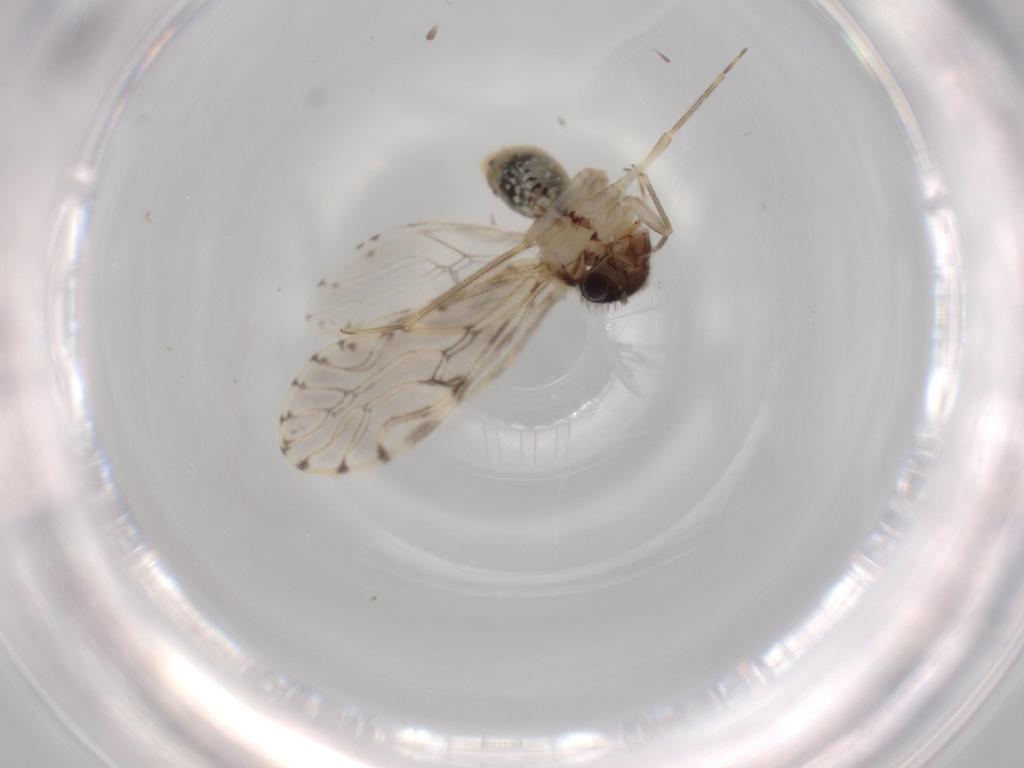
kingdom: Animalia
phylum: Arthropoda
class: Insecta
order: Psocodea
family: Epipsocidae
